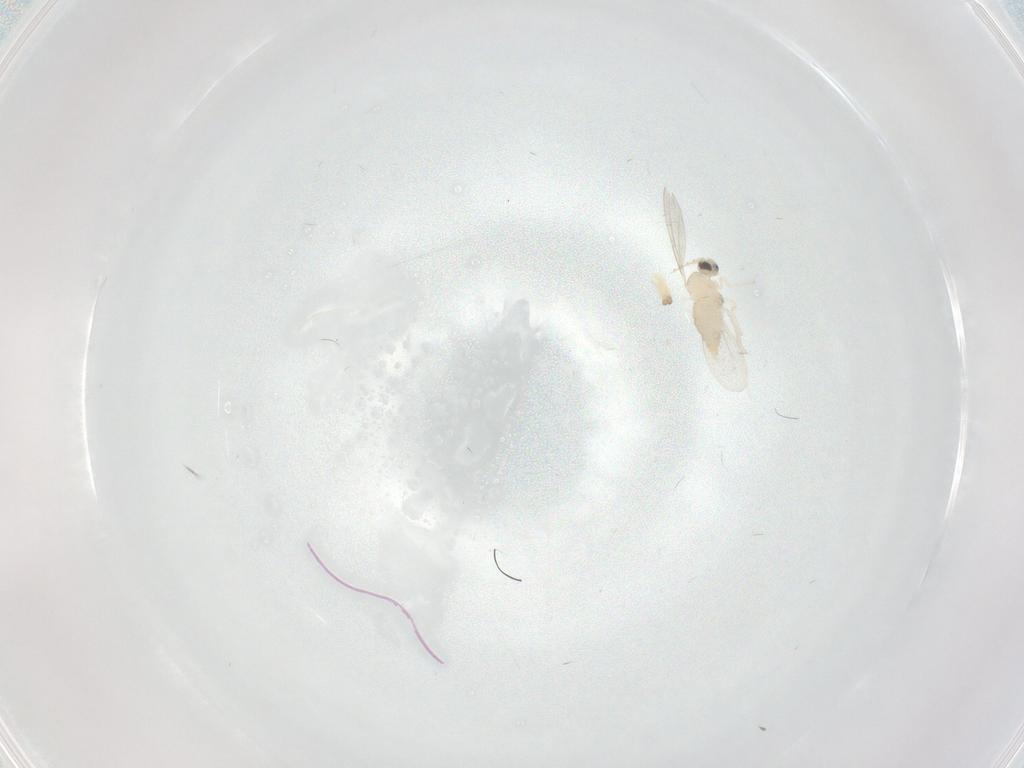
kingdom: Animalia
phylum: Arthropoda
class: Insecta
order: Diptera
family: Cecidomyiidae
